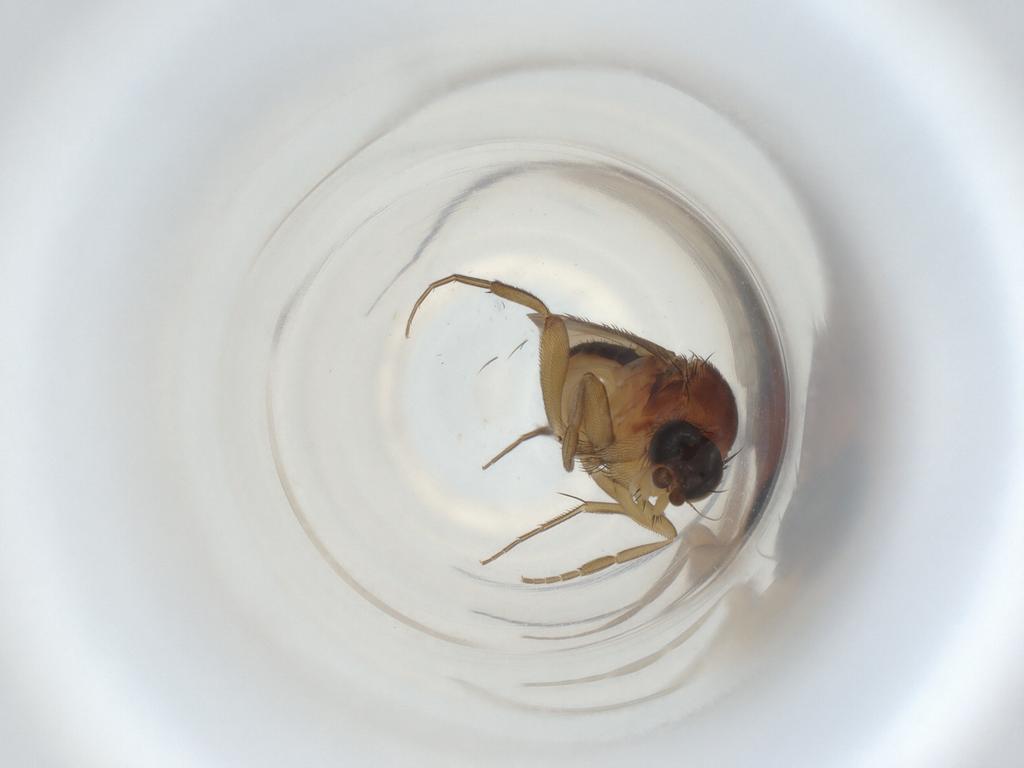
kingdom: Animalia
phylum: Arthropoda
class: Insecta
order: Diptera
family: Phoridae
